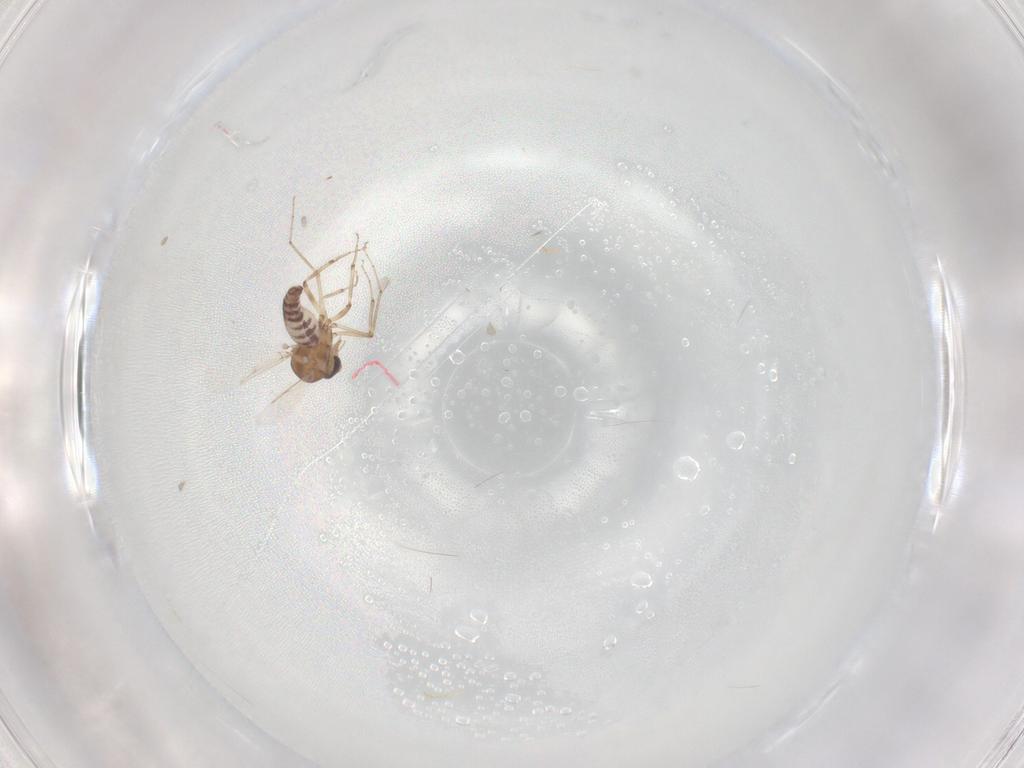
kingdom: Animalia
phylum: Arthropoda
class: Insecta
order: Diptera
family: Ceratopogonidae
